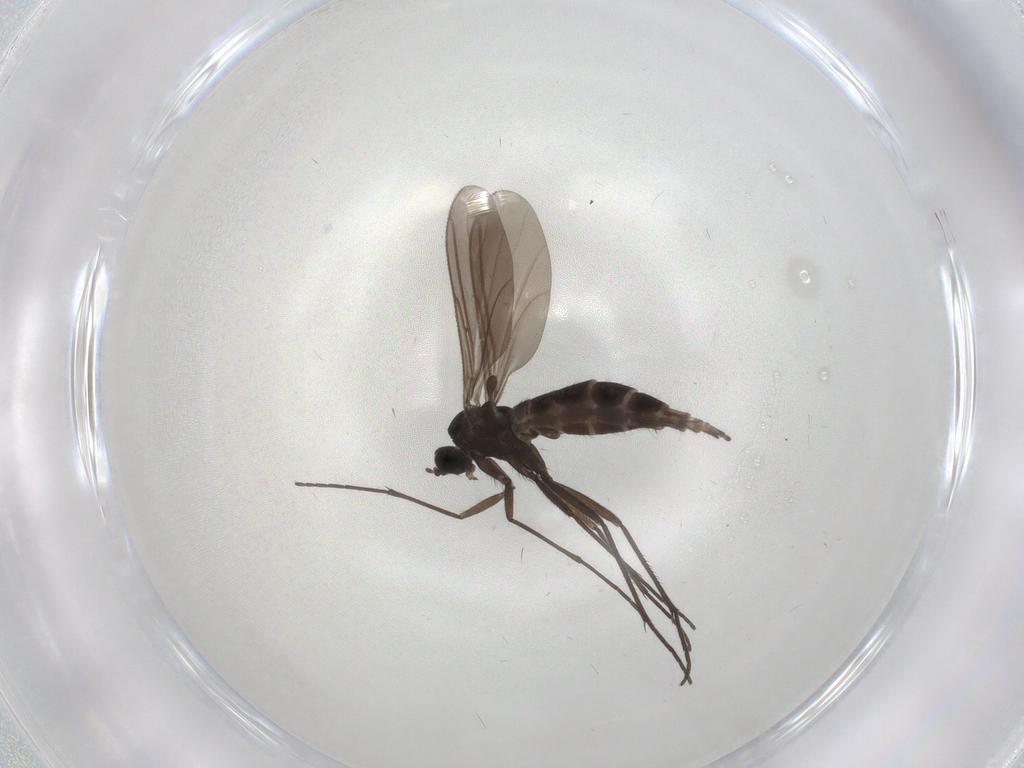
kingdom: Animalia
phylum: Arthropoda
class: Insecta
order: Diptera
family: Sciaridae
